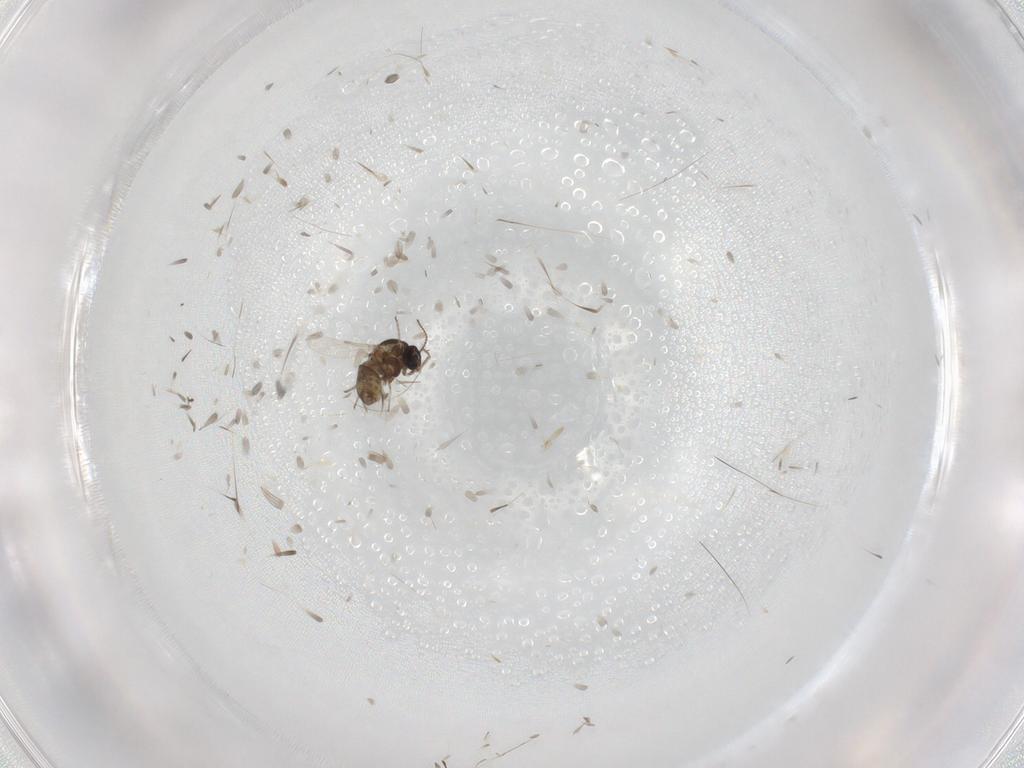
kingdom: Animalia
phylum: Arthropoda
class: Insecta
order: Diptera
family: Ceratopogonidae
